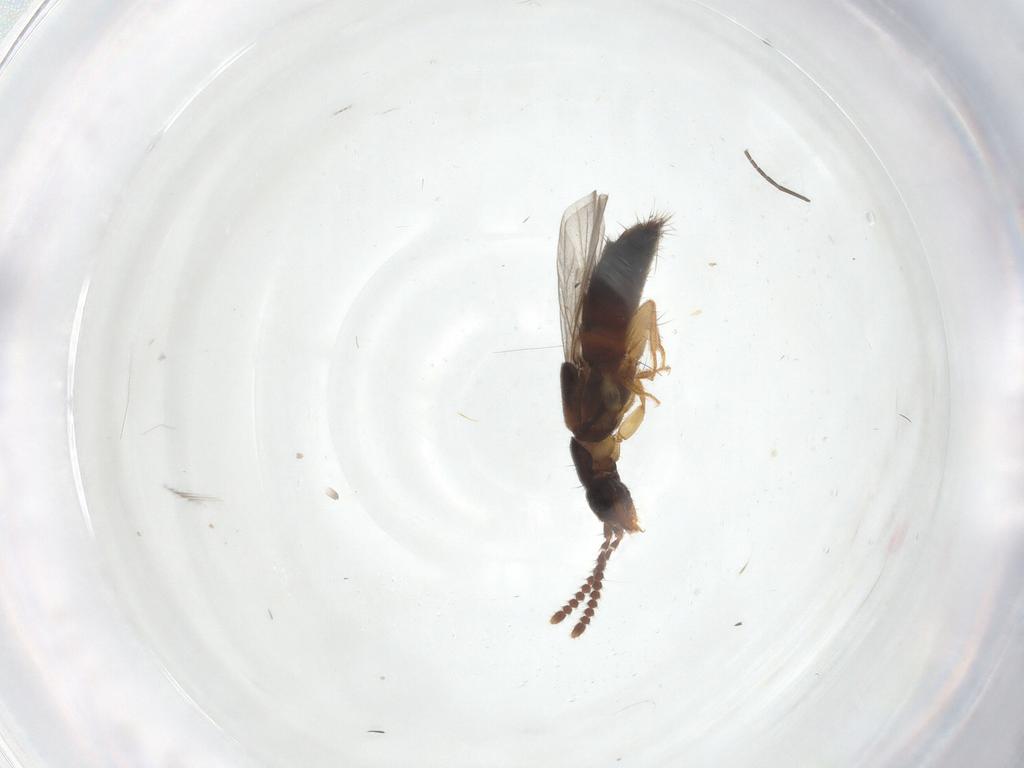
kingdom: Animalia
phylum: Arthropoda
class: Insecta
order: Coleoptera
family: Staphylinidae
